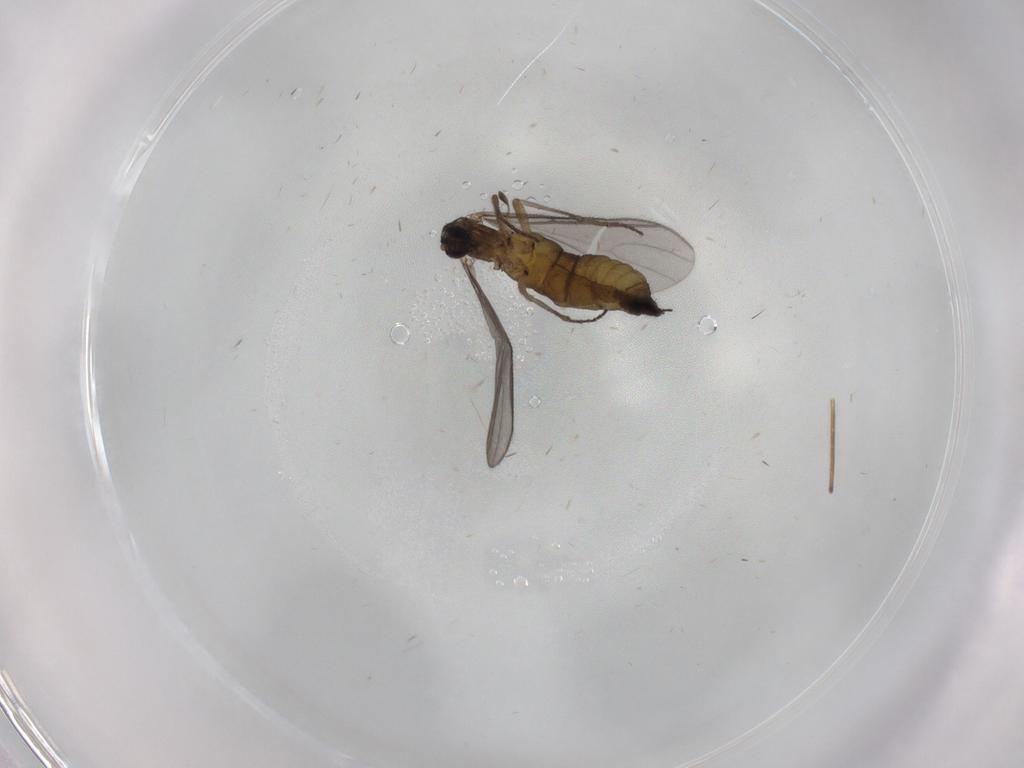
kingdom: Animalia
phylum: Arthropoda
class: Insecta
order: Diptera
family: Sciaridae
